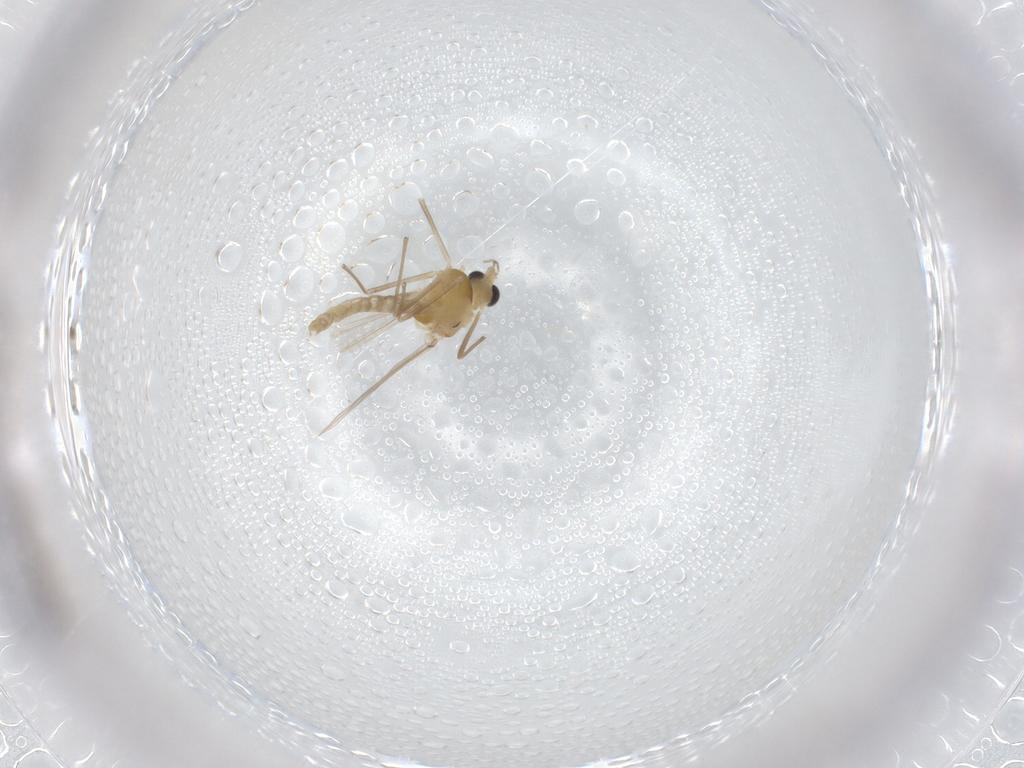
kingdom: Animalia
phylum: Arthropoda
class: Insecta
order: Diptera
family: Chironomidae
